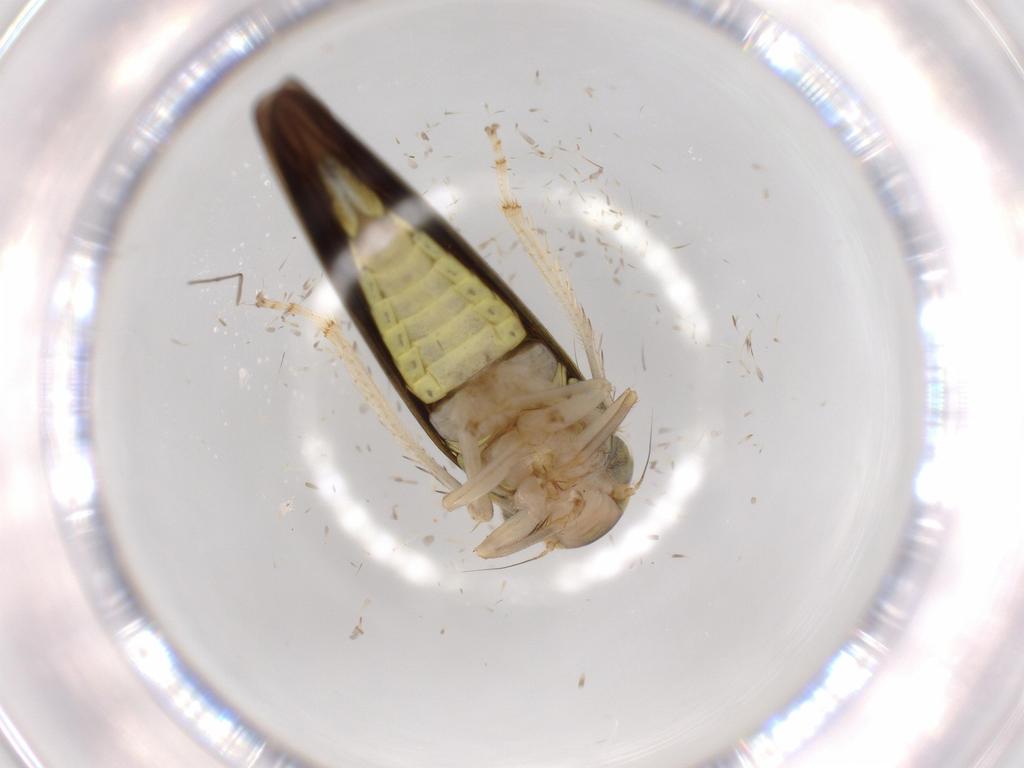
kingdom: Animalia
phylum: Arthropoda
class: Insecta
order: Hemiptera
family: Cicadellidae
